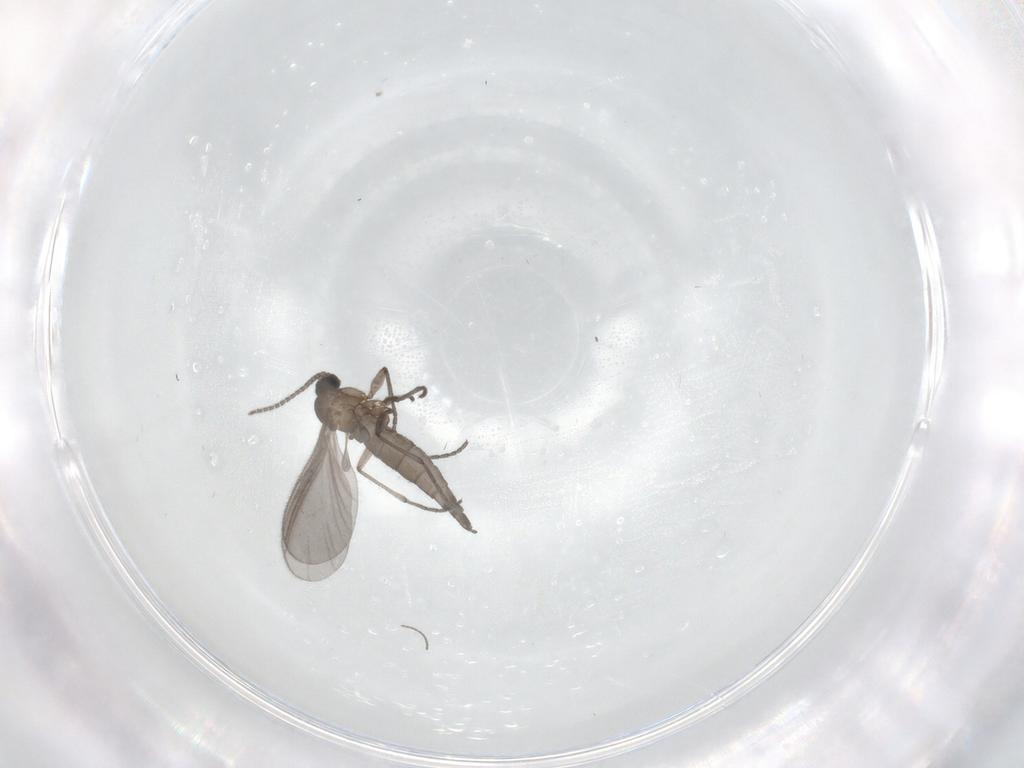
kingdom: Animalia
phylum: Arthropoda
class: Insecta
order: Diptera
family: Sciaridae
